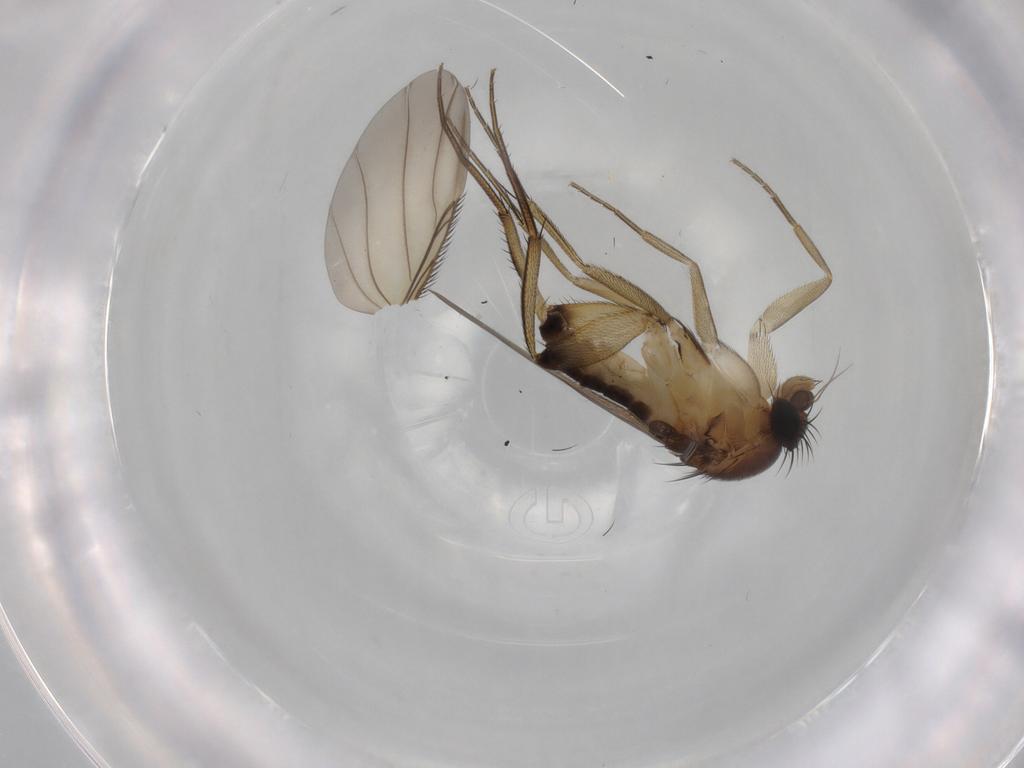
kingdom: Animalia
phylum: Arthropoda
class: Insecta
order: Diptera
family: Phoridae
